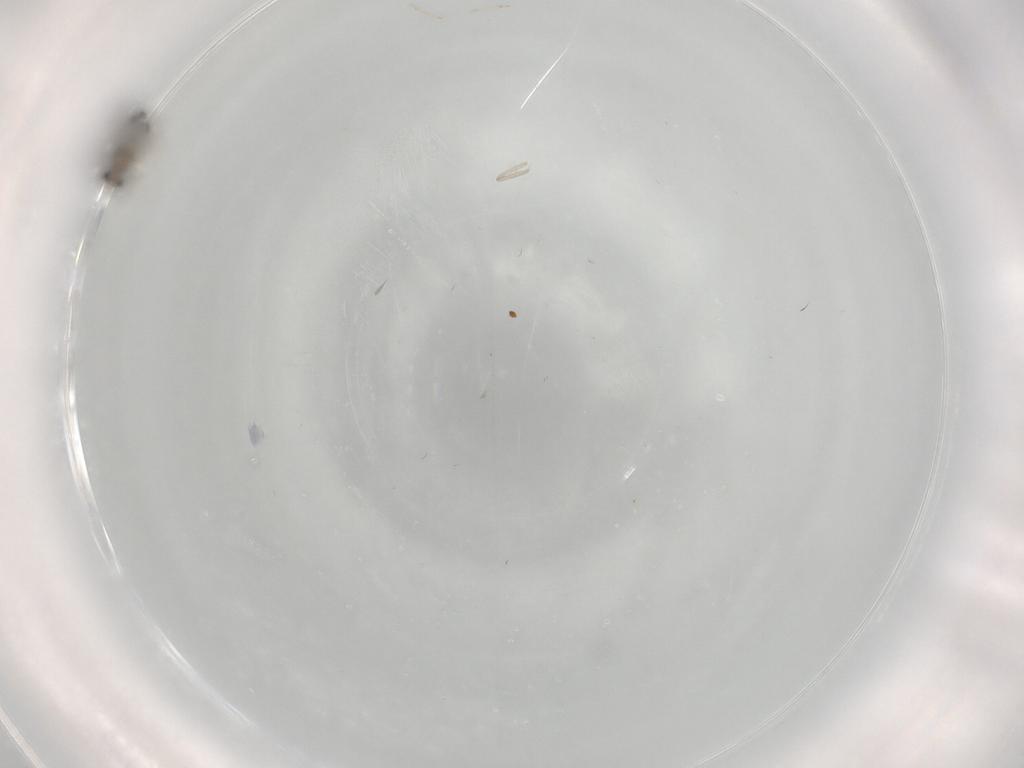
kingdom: Animalia
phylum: Arthropoda
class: Insecta
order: Diptera
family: Cecidomyiidae
